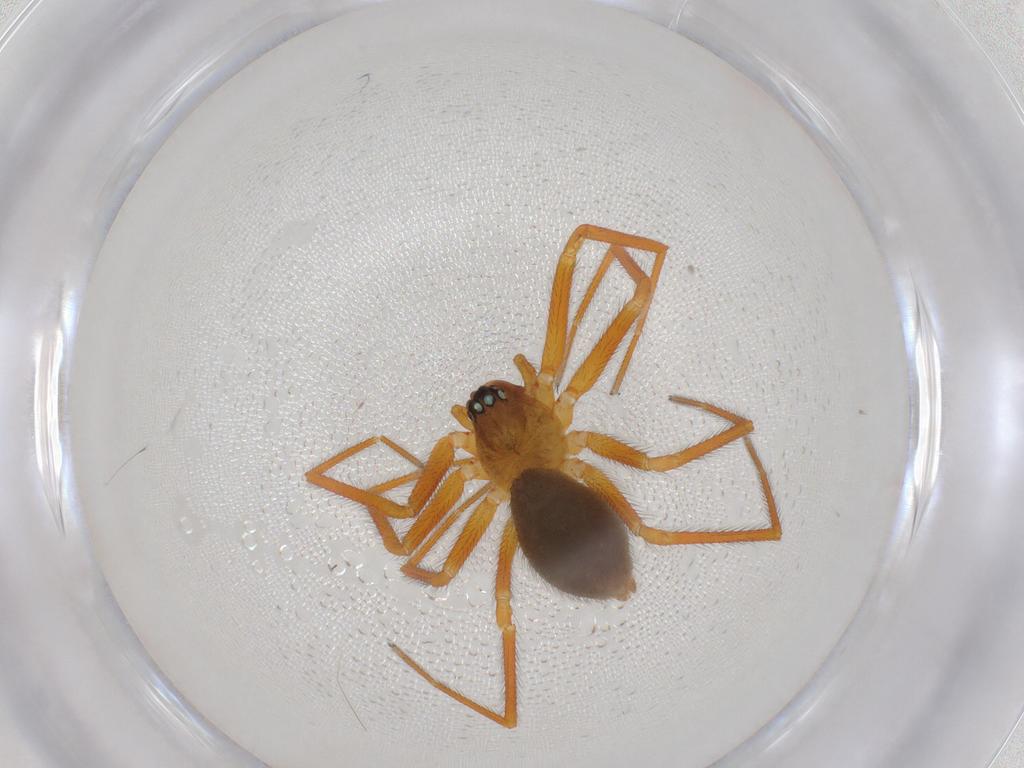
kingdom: Animalia
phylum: Arthropoda
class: Arachnida
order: Araneae
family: Linyphiidae
